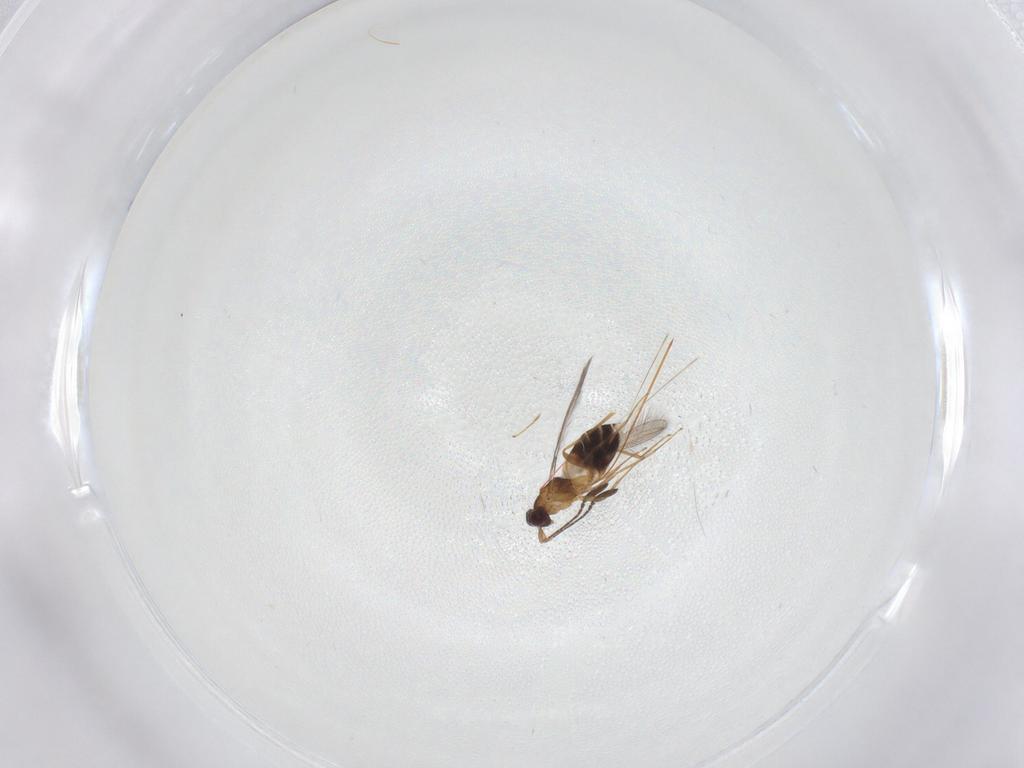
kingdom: Animalia
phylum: Arthropoda
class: Insecta
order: Hymenoptera
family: Mymaridae
